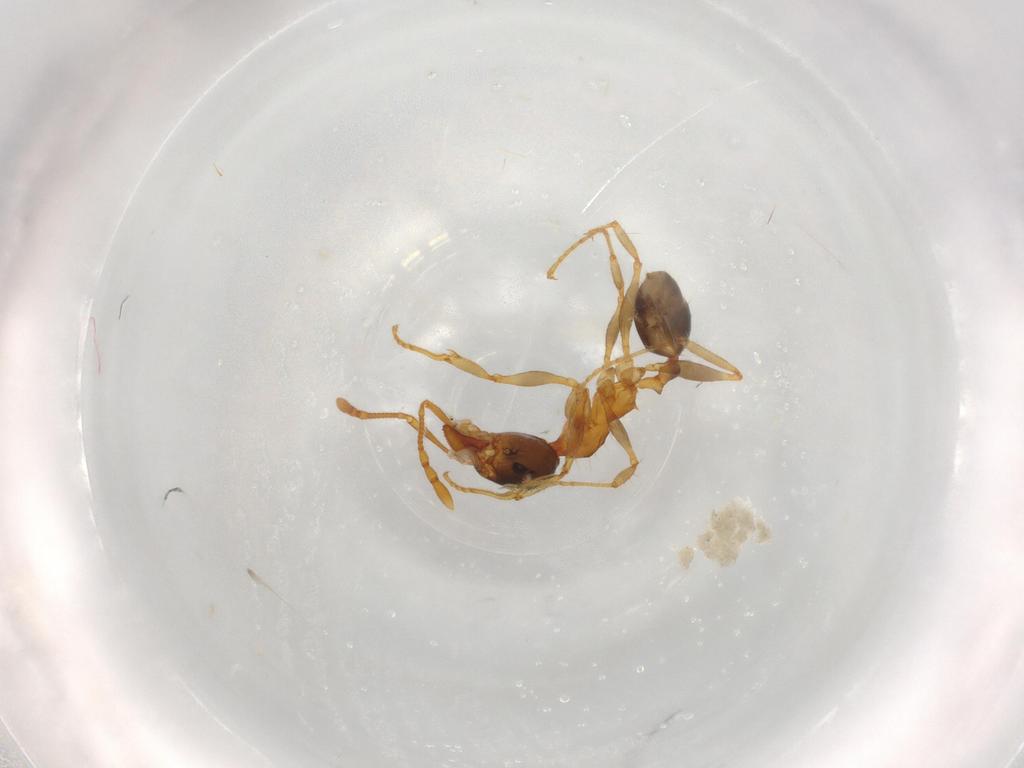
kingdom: Animalia
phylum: Arthropoda
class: Insecta
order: Hymenoptera
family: Formicidae
